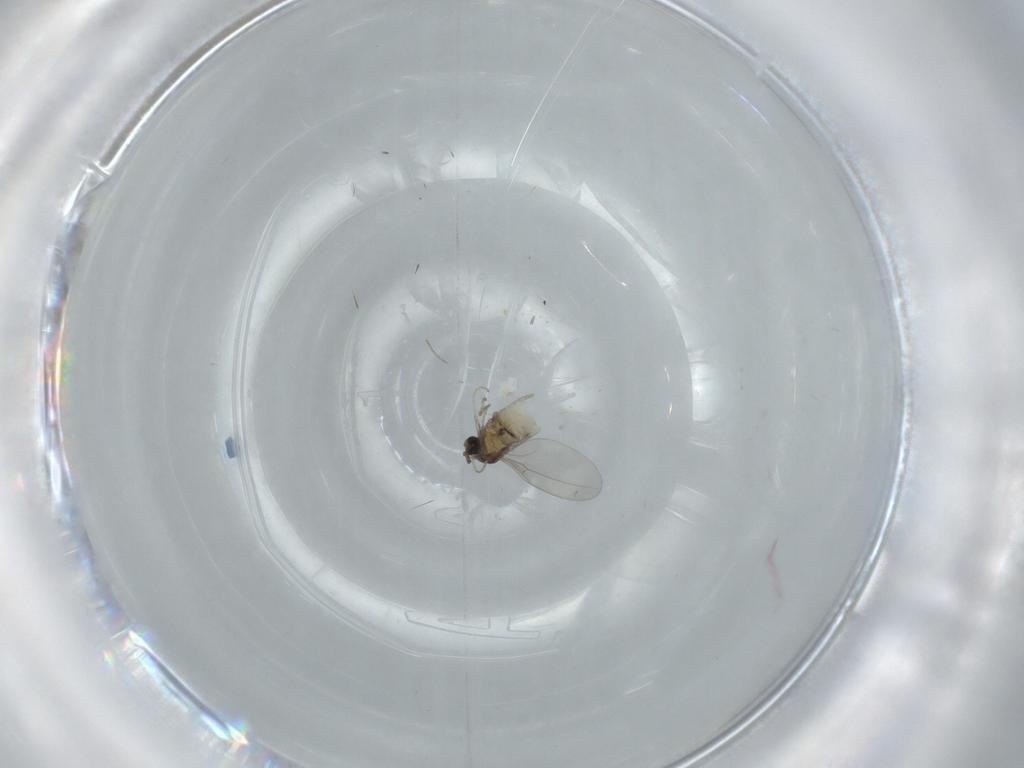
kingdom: Animalia
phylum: Arthropoda
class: Insecta
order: Diptera
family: Cecidomyiidae
